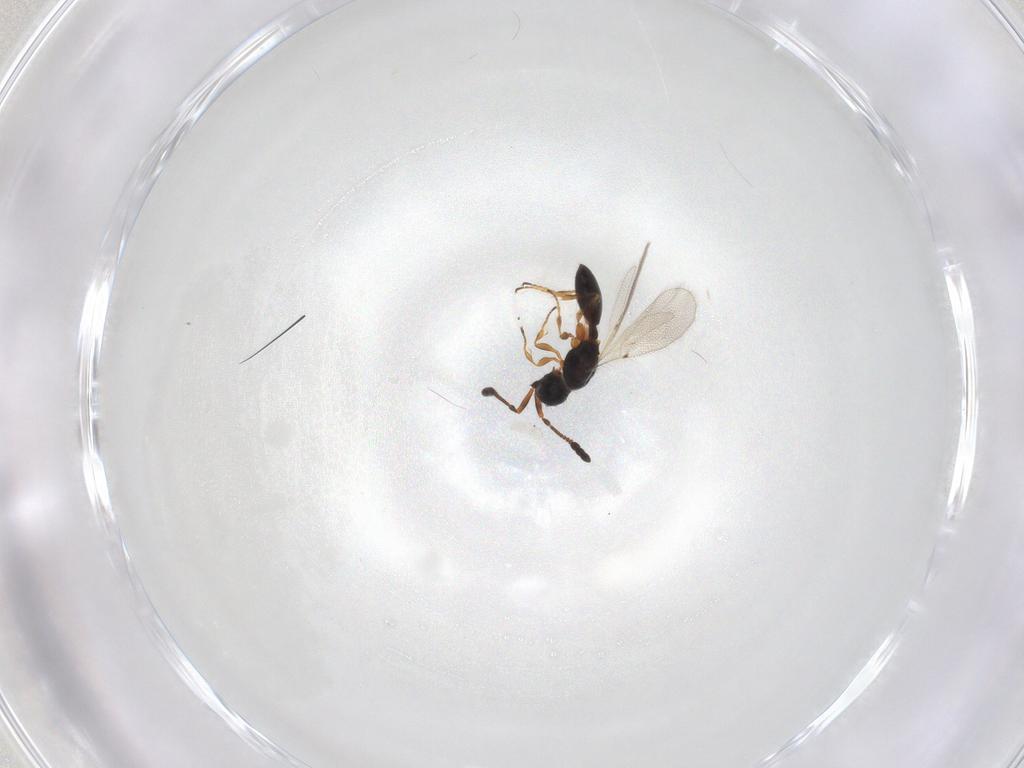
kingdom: Animalia
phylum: Arthropoda
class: Insecta
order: Hymenoptera
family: Diapriidae
